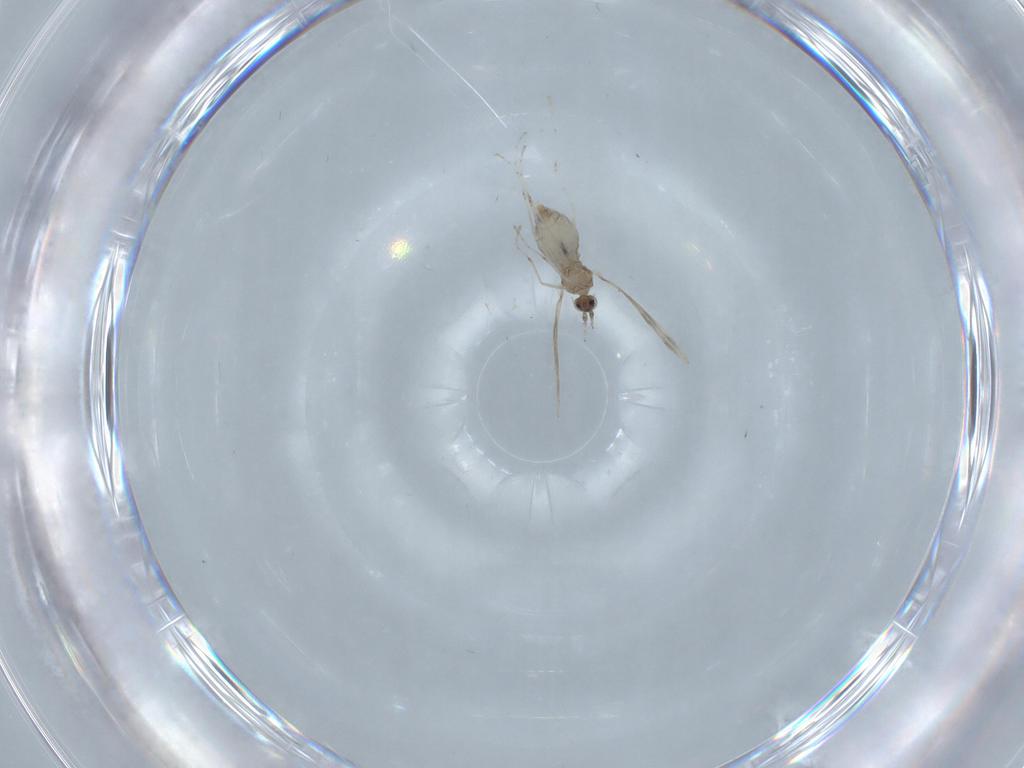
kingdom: Animalia
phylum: Arthropoda
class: Insecta
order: Diptera
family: Cecidomyiidae
